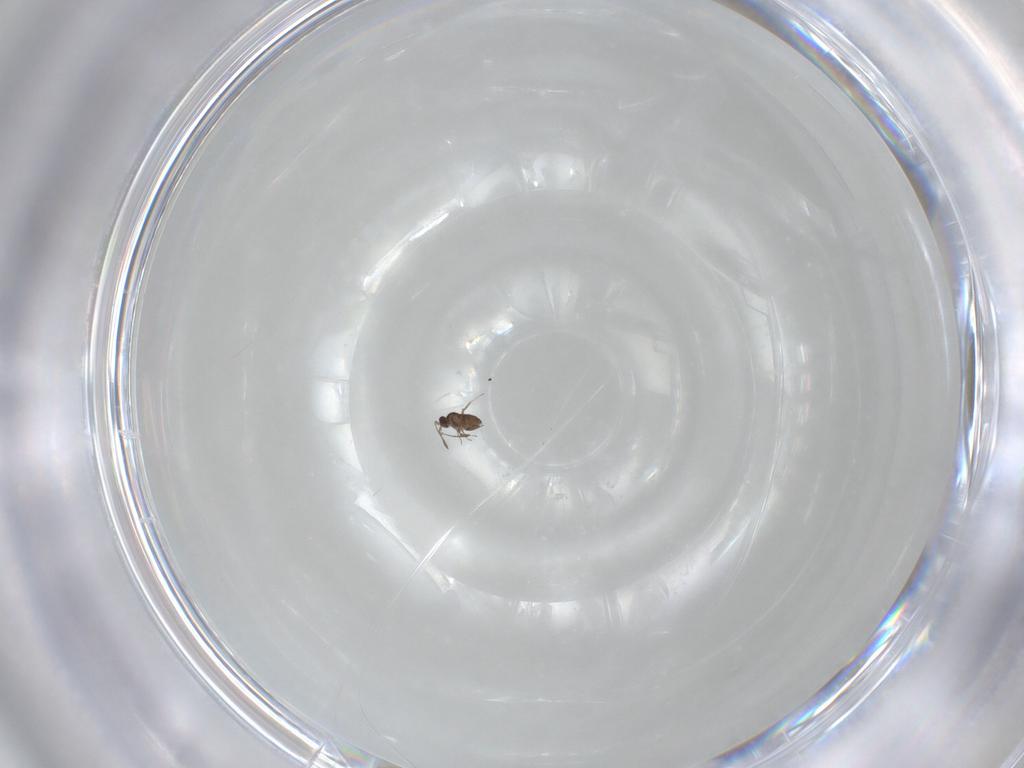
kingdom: Animalia
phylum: Arthropoda
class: Insecta
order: Hymenoptera
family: Mymaridae
